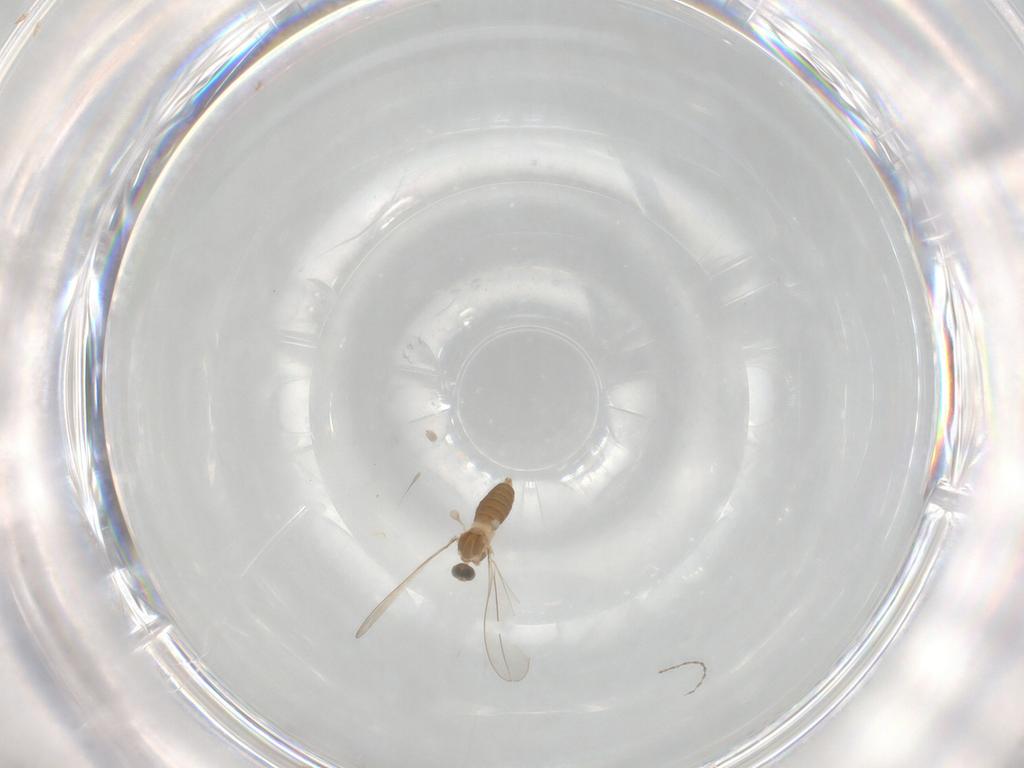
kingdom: Animalia
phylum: Arthropoda
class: Insecta
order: Diptera
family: Cecidomyiidae
